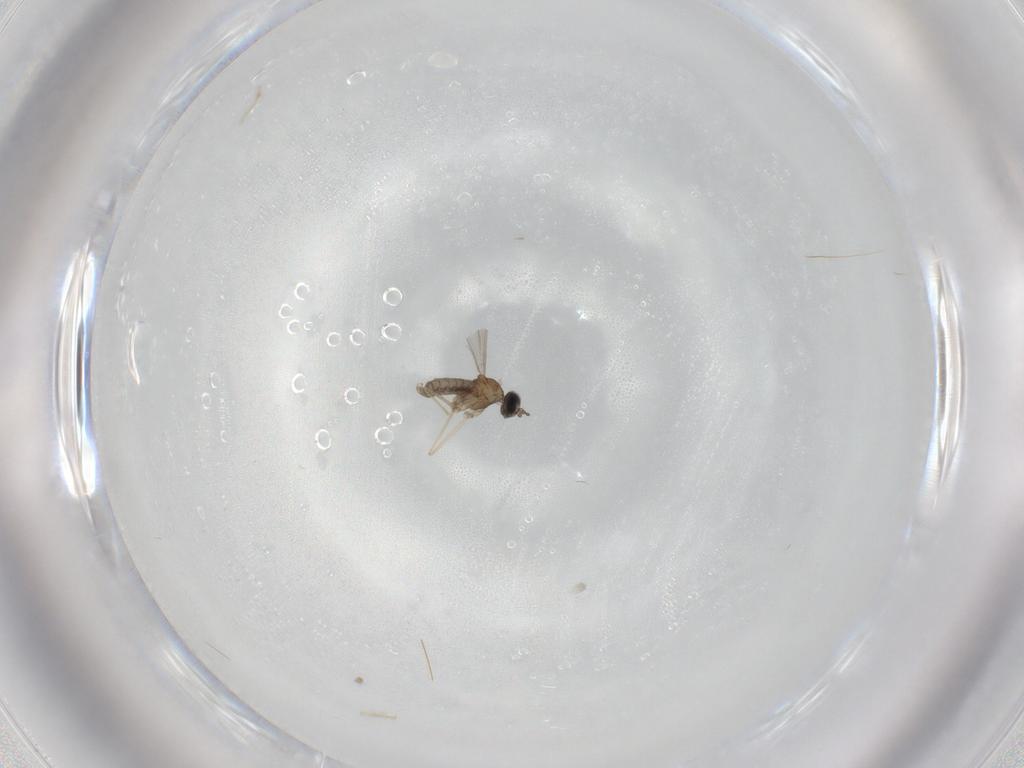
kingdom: Animalia
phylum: Arthropoda
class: Insecta
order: Diptera
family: Cecidomyiidae
